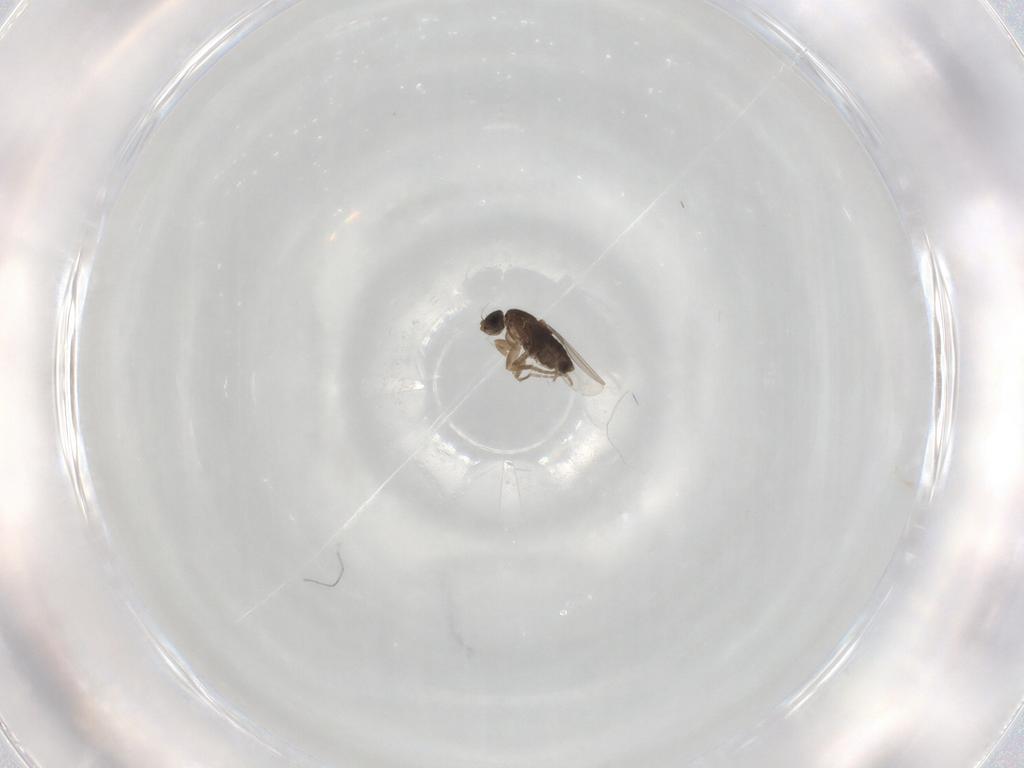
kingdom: Animalia
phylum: Arthropoda
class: Insecta
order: Diptera
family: Phoridae
